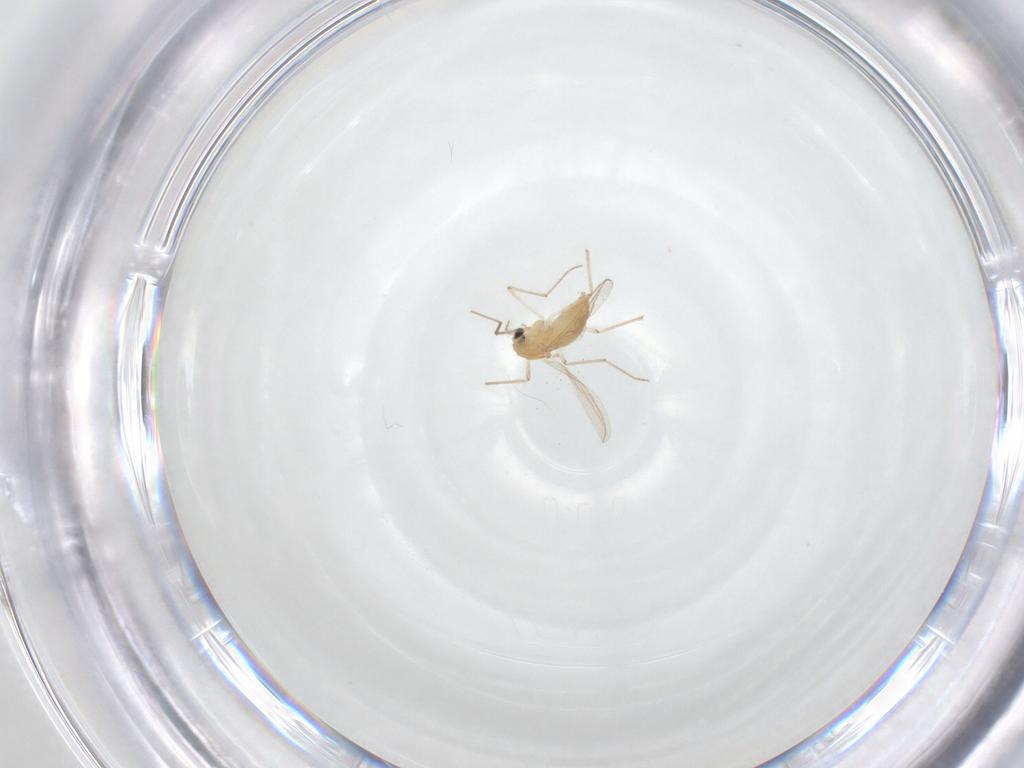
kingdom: Animalia
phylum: Arthropoda
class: Insecta
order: Diptera
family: Chironomidae
